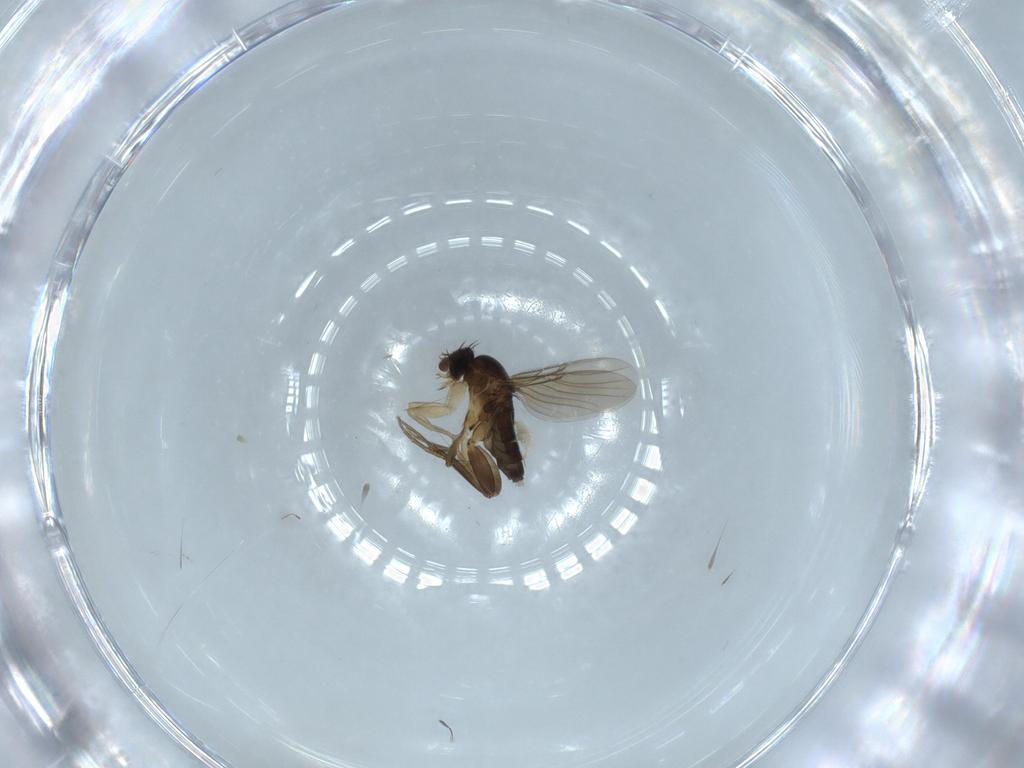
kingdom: Animalia
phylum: Arthropoda
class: Insecta
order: Diptera
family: Phoridae
